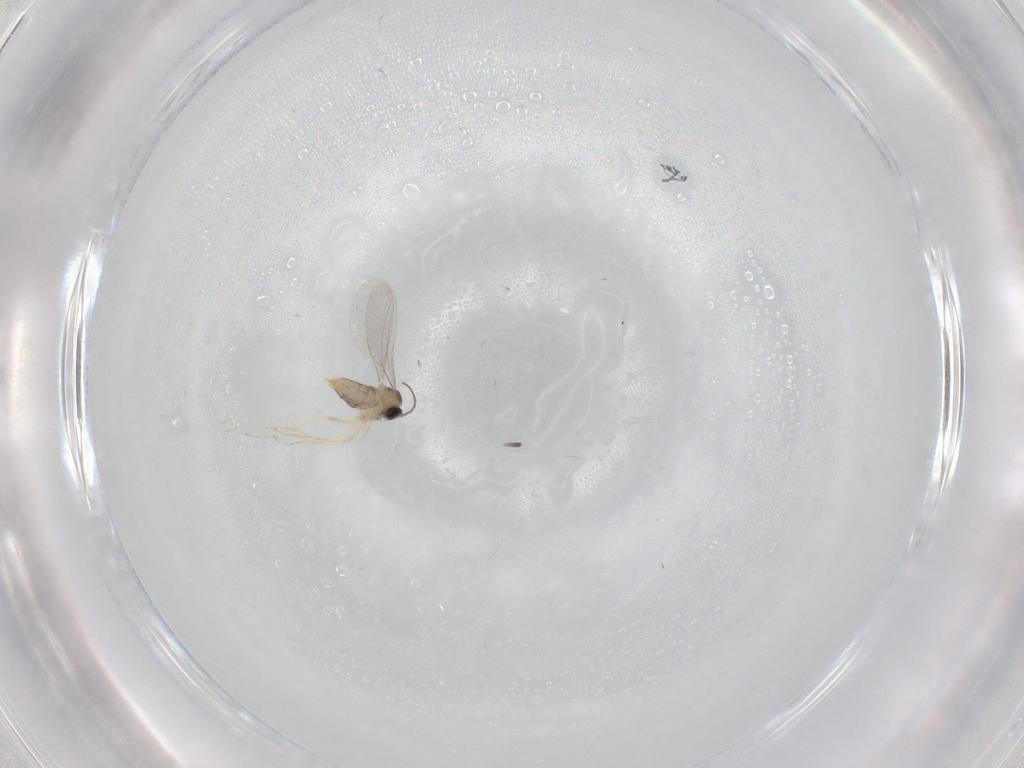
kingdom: Animalia
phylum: Arthropoda
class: Insecta
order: Diptera
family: Cecidomyiidae
